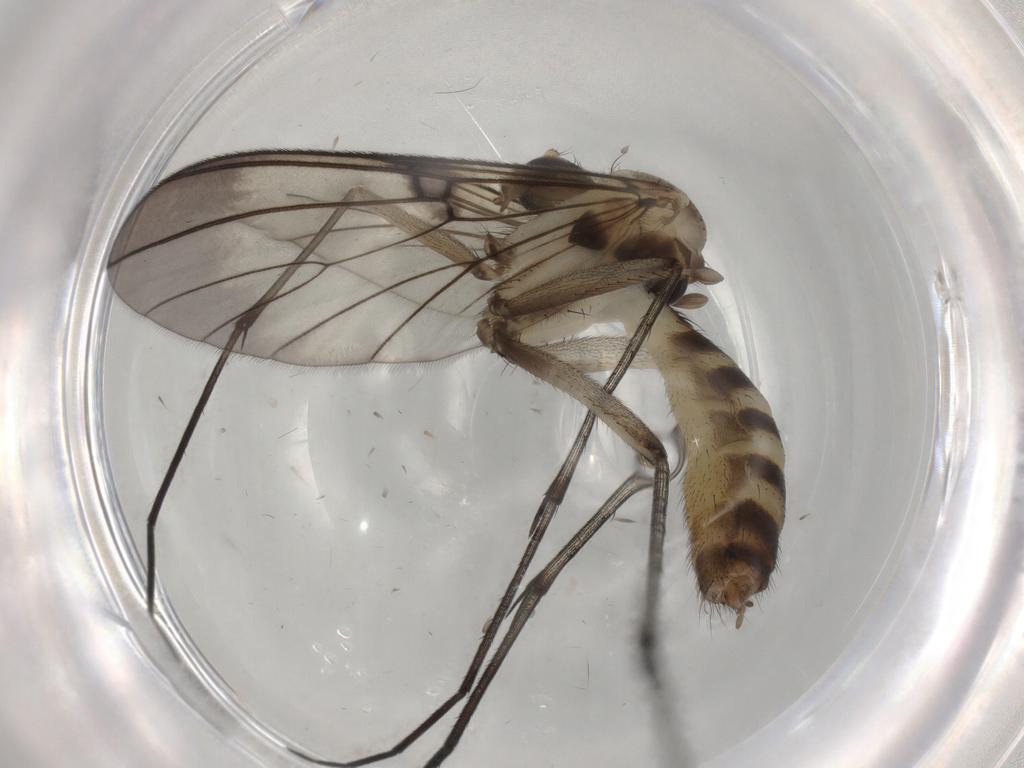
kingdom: Animalia
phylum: Arthropoda
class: Insecta
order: Diptera
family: Mycetophilidae
